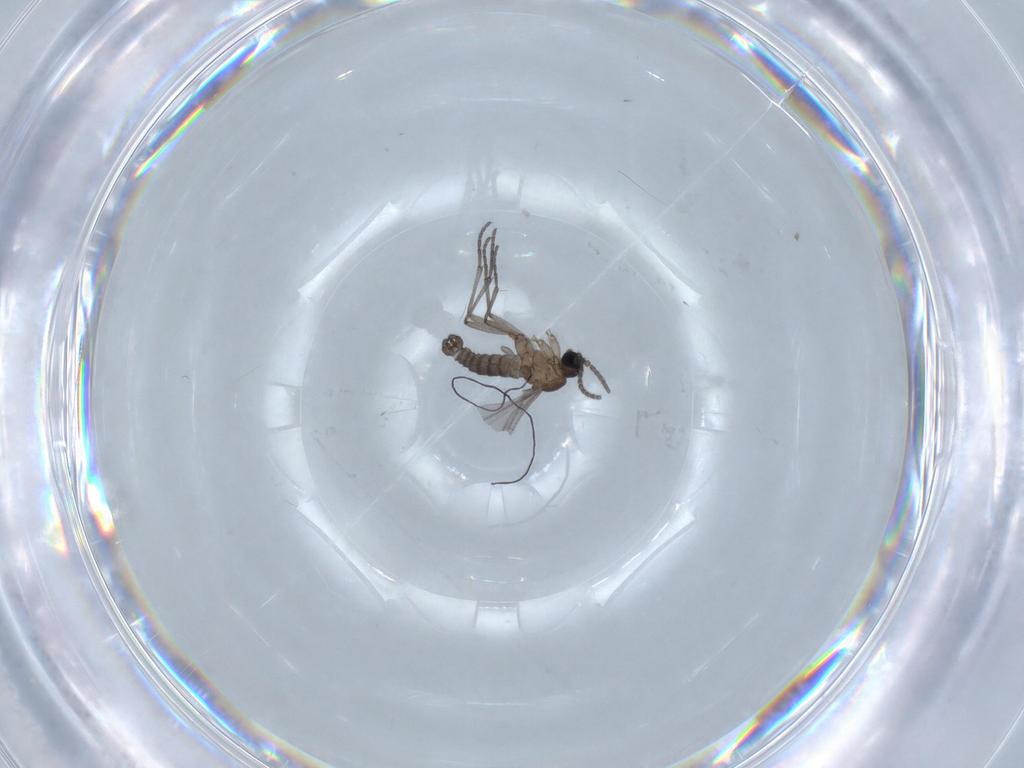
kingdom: Animalia
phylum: Arthropoda
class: Insecta
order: Diptera
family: Sciaridae
